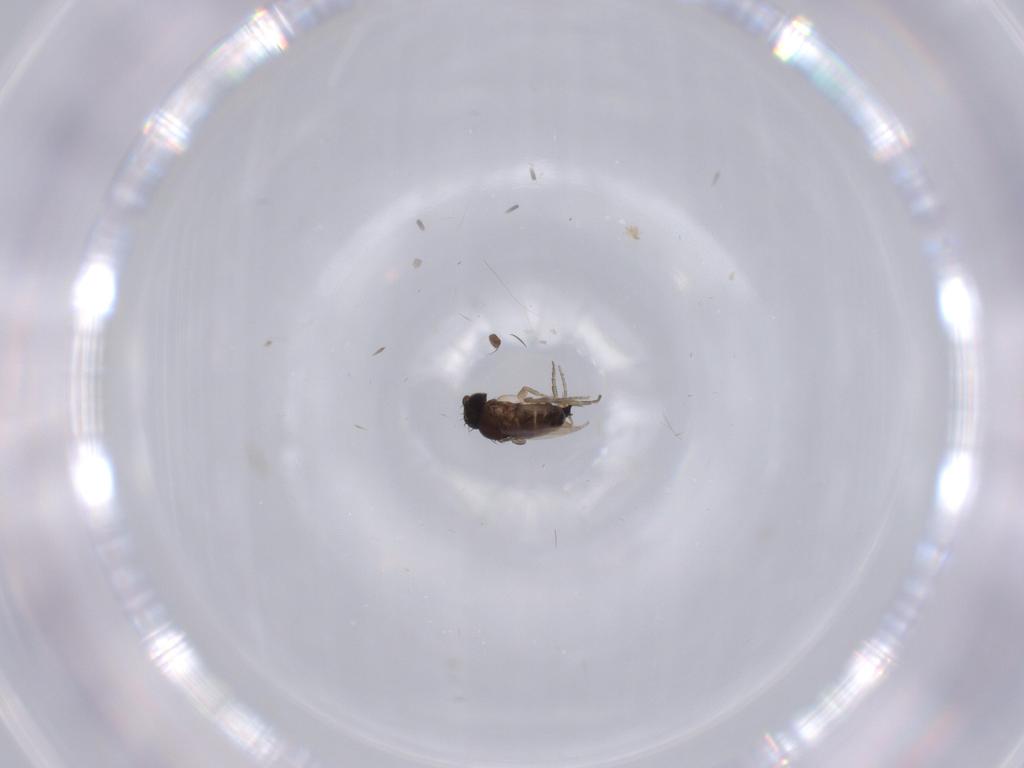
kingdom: Animalia
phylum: Arthropoda
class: Insecta
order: Diptera
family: Phoridae
